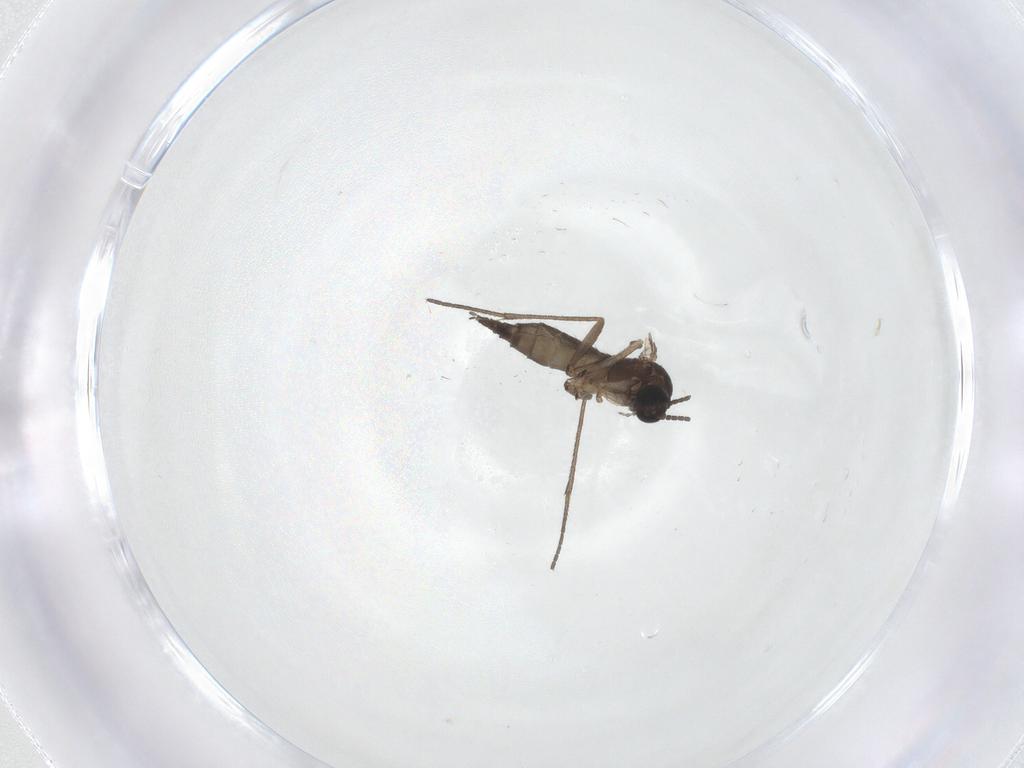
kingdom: Animalia
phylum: Arthropoda
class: Insecta
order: Diptera
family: Sciaridae
